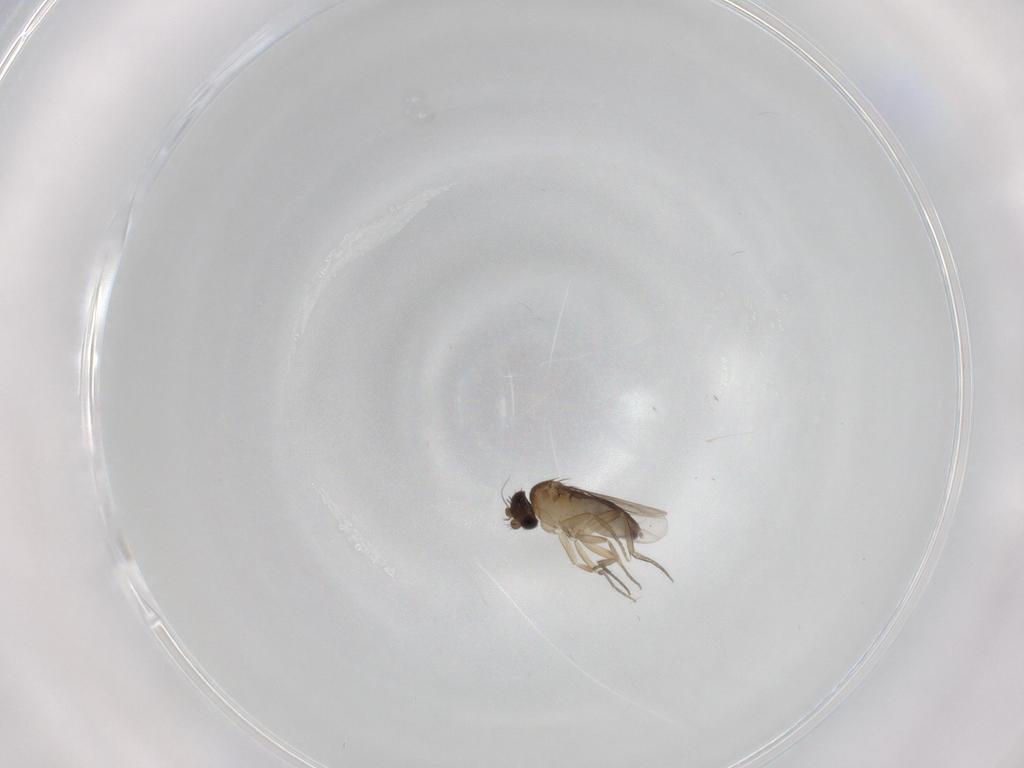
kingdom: Animalia
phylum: Arthropoda
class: Insecta
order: Diptera
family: Phoridae
